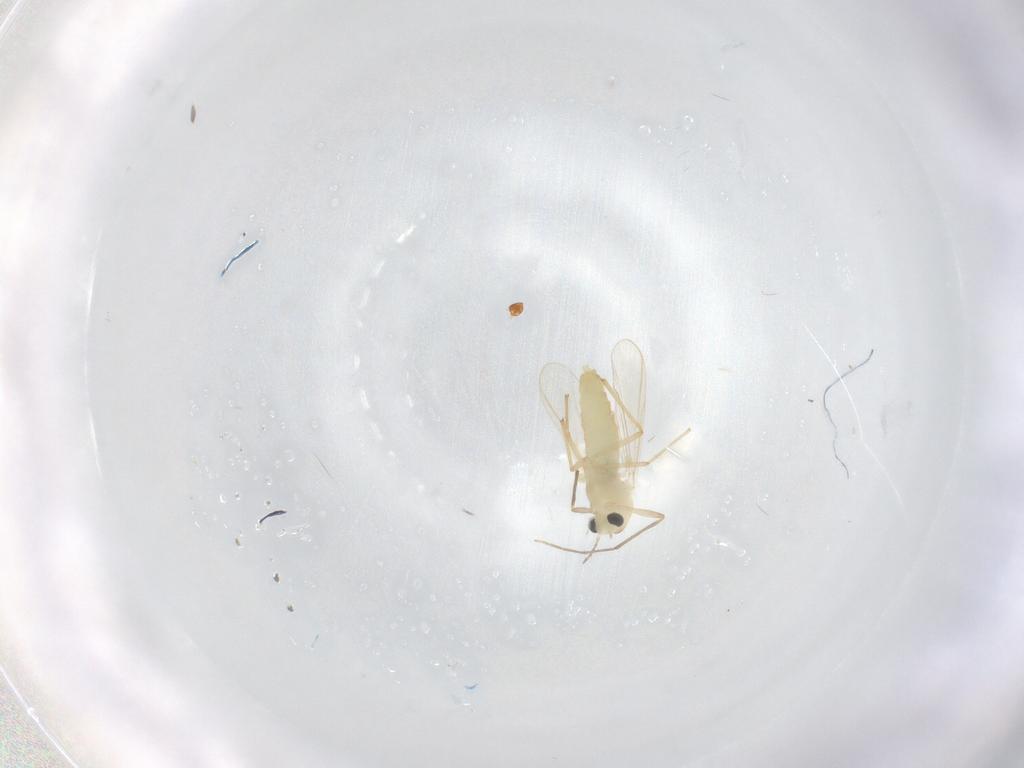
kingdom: Animalia
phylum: Arthropoda
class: Insecta
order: Diptera
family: Chironomidae
